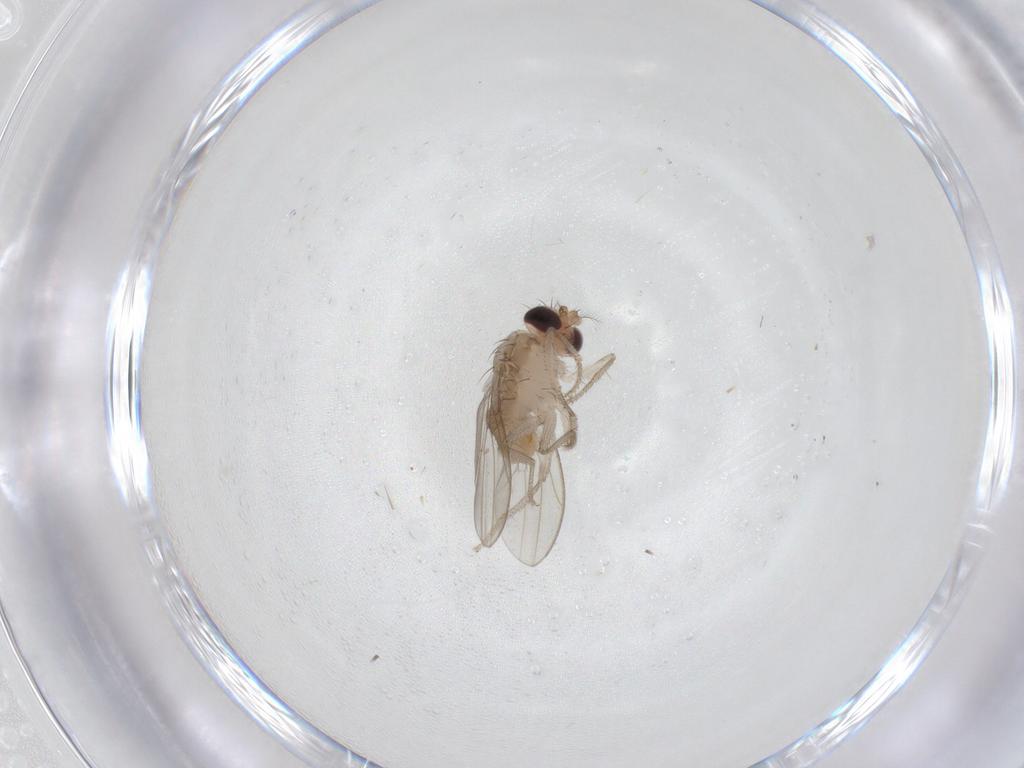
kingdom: Animalia
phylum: Arthropoda
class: Insecta
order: Diptera
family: Drosophilidae
